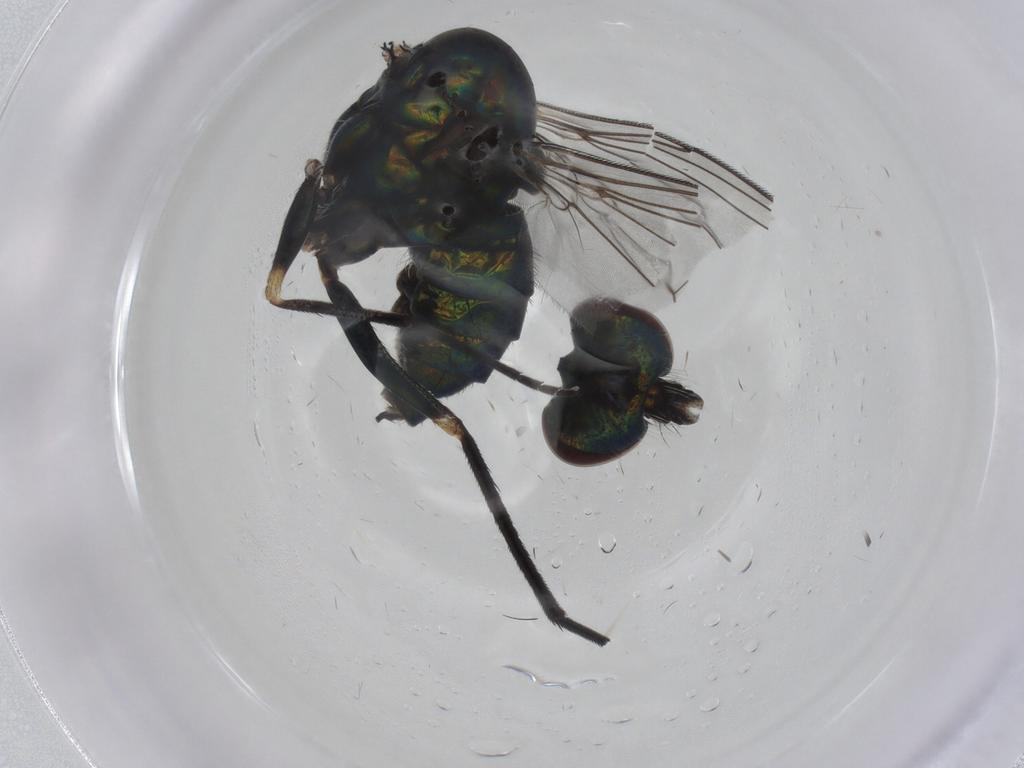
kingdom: Animalia
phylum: Arthropoda
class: Insecta
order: Diptera
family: Dolichopodidae
